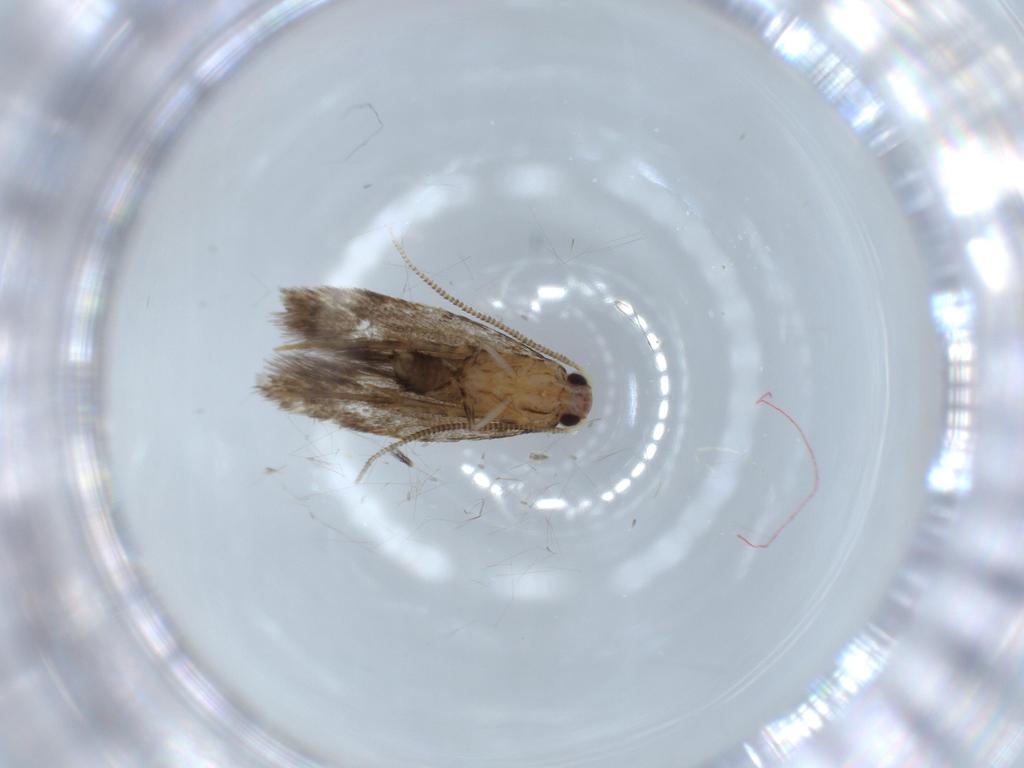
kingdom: Animalia
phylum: Arthropoda
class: Insecta
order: Lepidoptera
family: Tineidae
